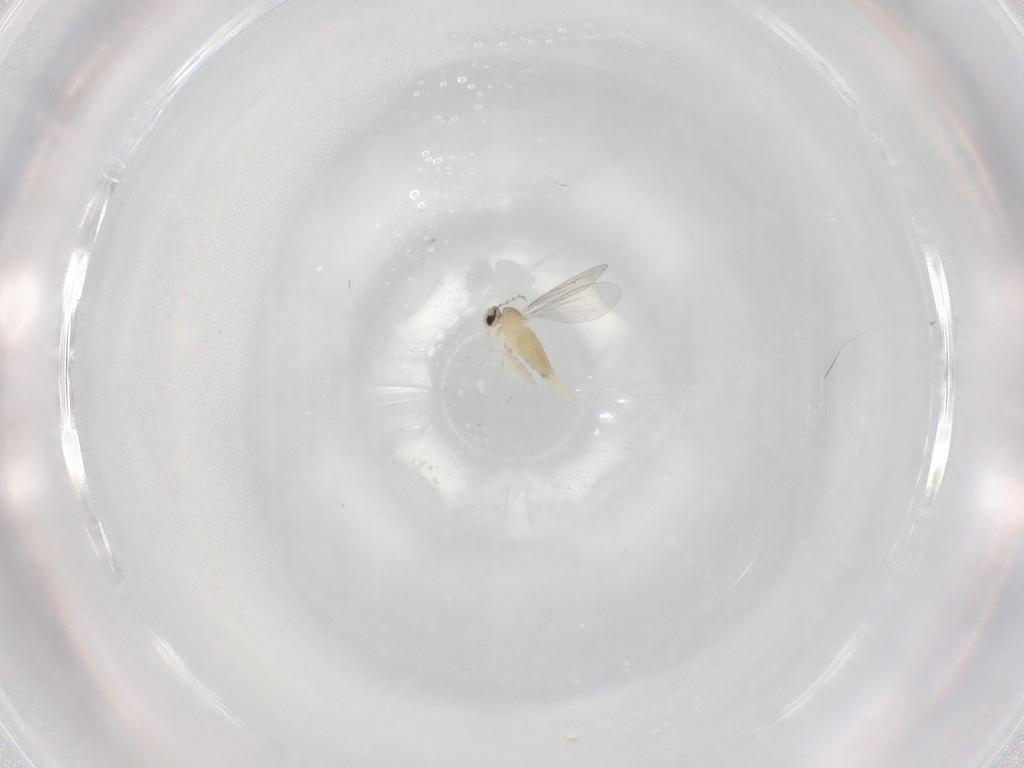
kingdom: Animalia
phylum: Arthropoda
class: Insecta
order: Diptera
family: Cecidomyiidae
